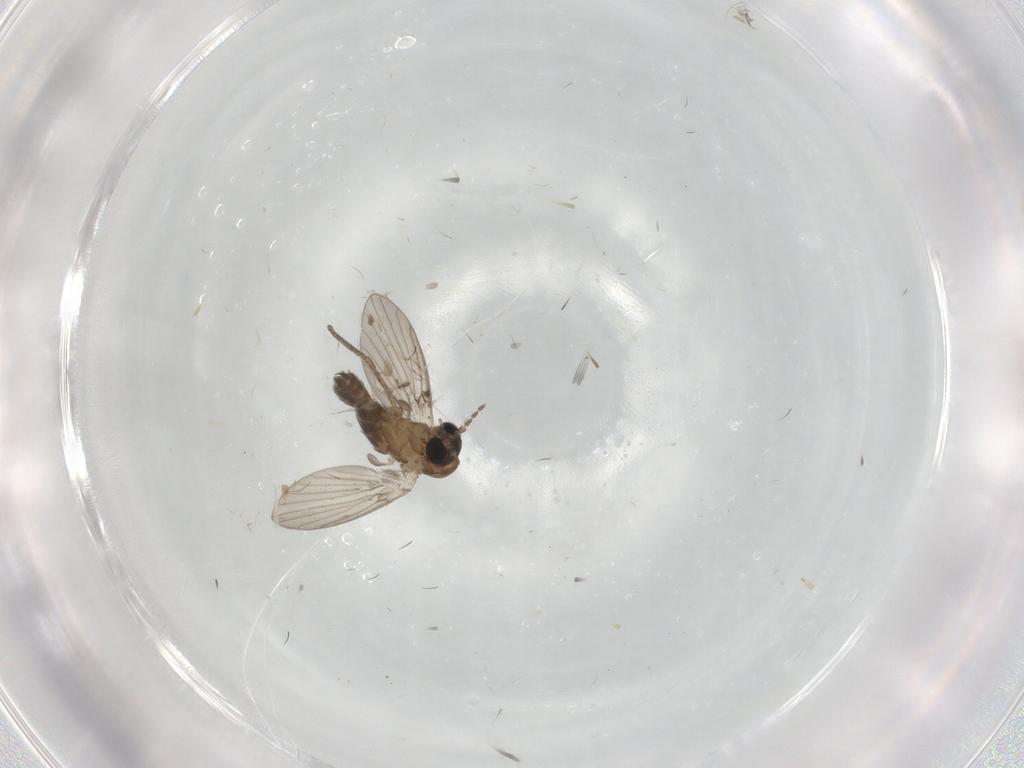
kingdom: Animalia
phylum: Arthropoda
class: Insecta
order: Diptera
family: Psychodidae
